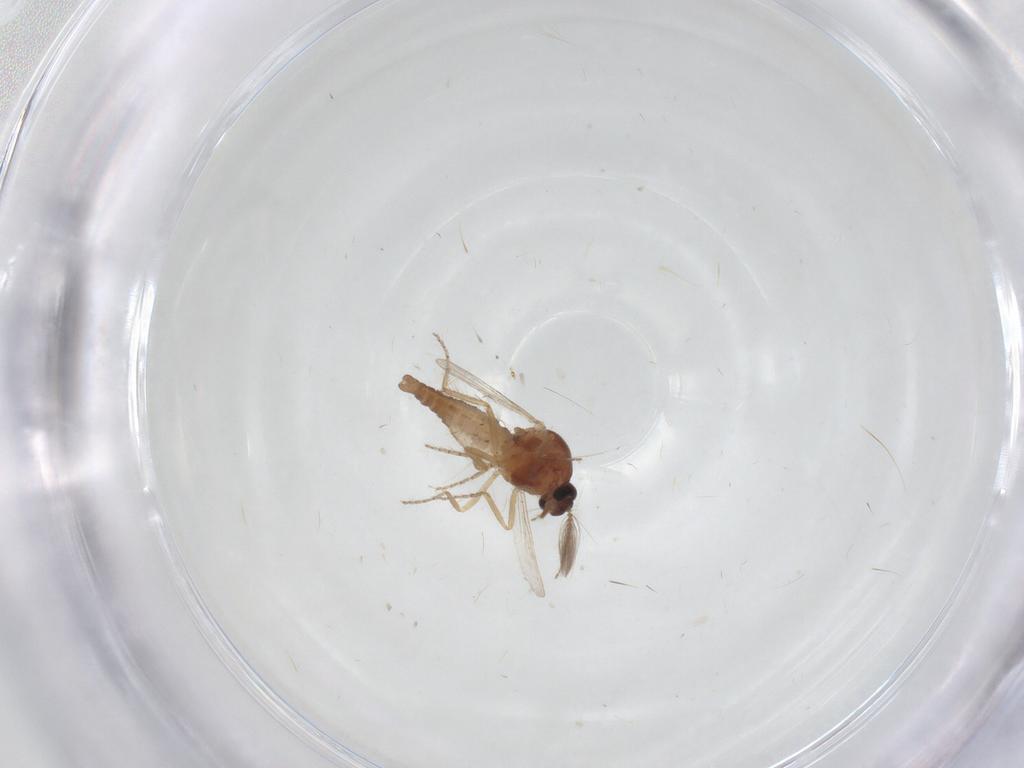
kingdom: Animalia
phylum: Arthropoda
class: Insecta
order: Diptera
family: Ceratopogonidae
